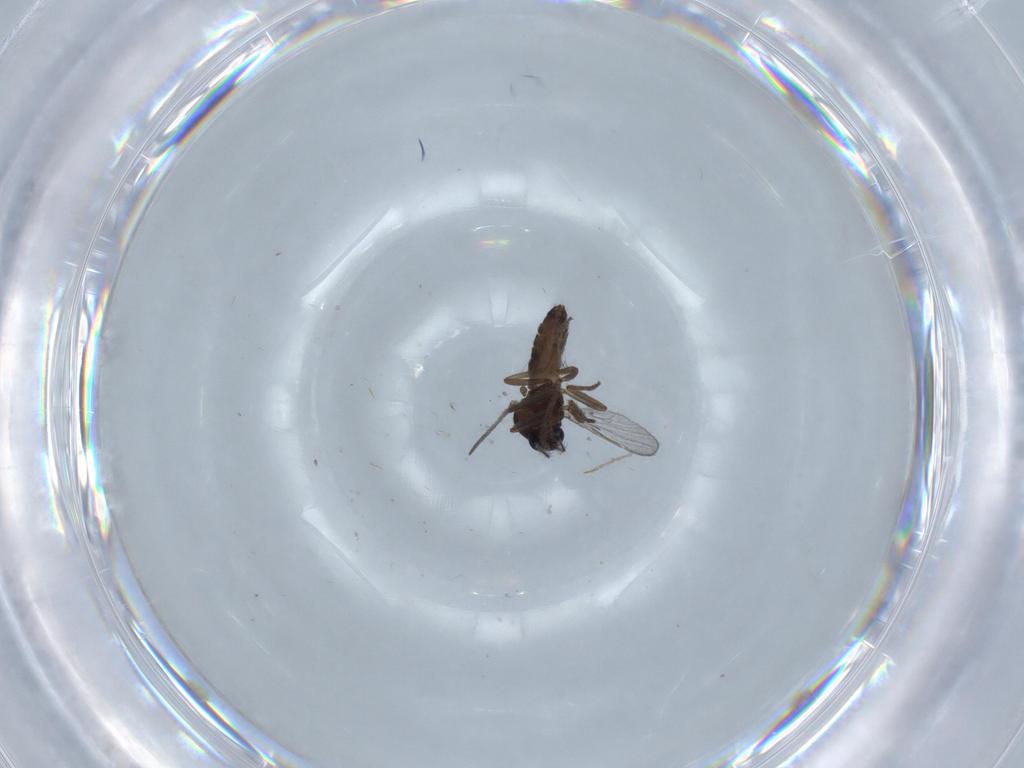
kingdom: Animalia
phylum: Arthropoda
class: Insecta
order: Diptera
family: Ceratopogonidae
